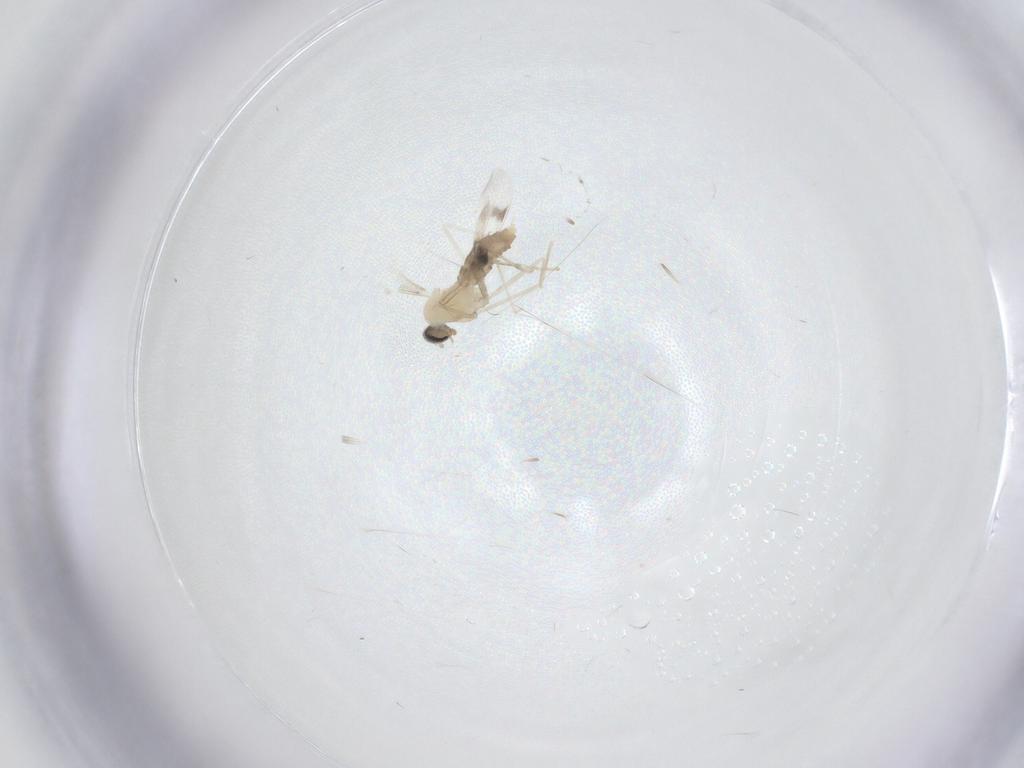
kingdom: Animalia
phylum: Arthropoda
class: Insecta
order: Diptera
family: Cecidomyiidae
